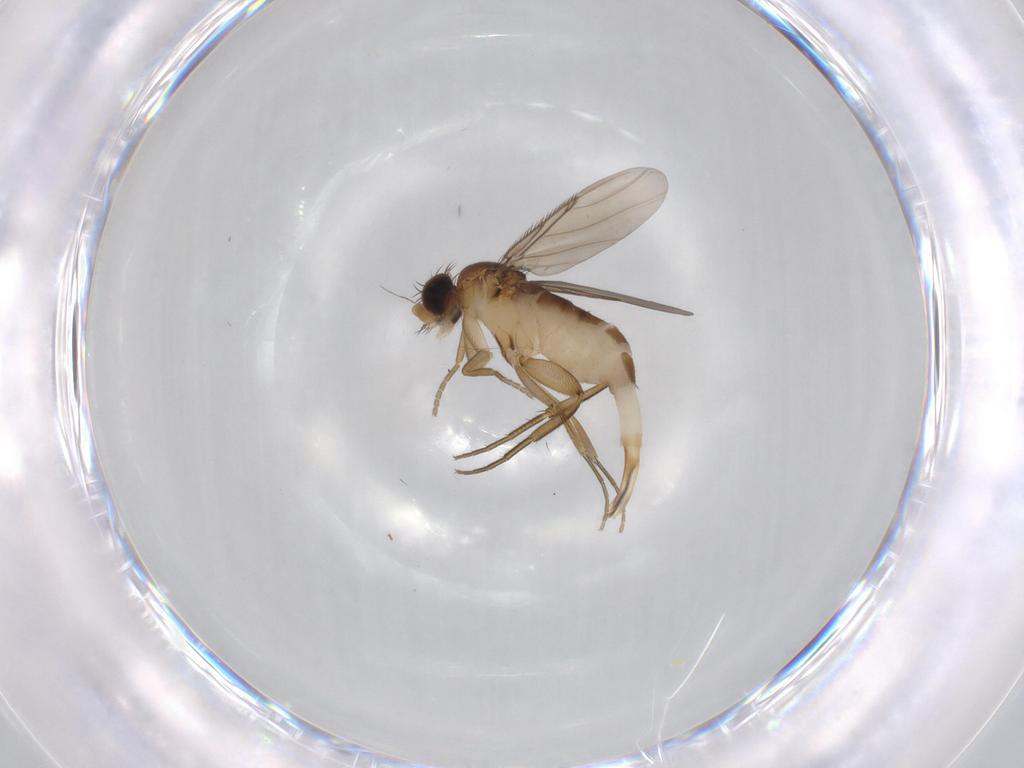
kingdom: Animalia
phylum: Arthropoda
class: Insecta
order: Diptera
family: Phoridae
